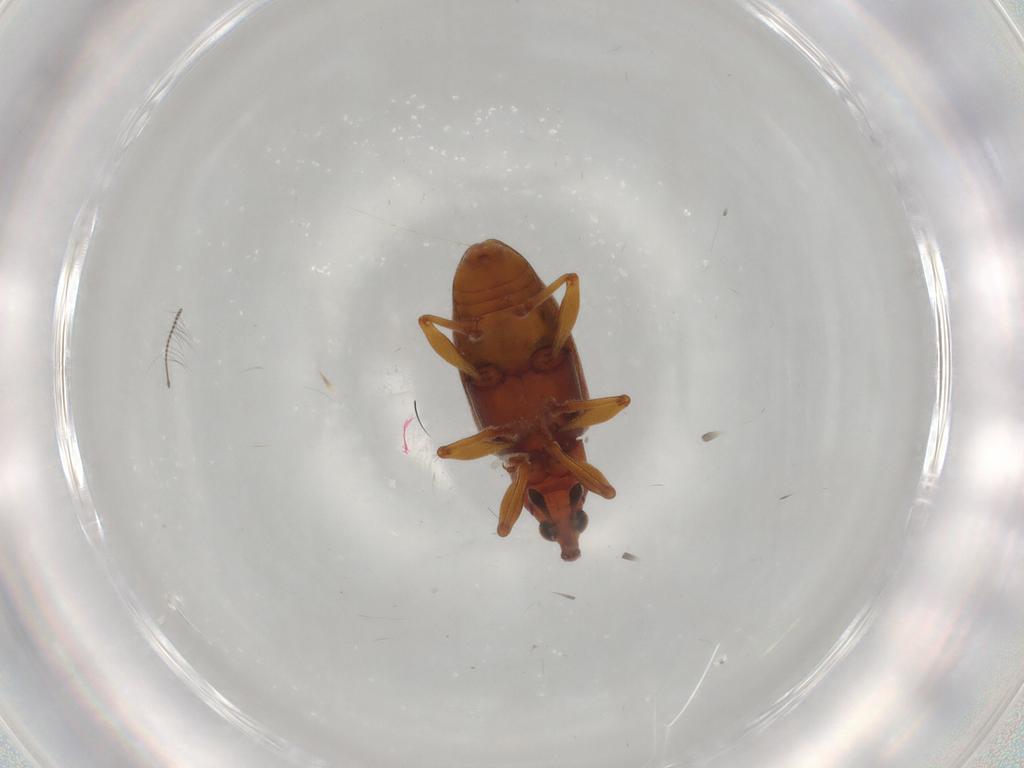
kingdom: Animalia
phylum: Arthropoda
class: Insecta
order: Coleoptera
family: Curculionidae
